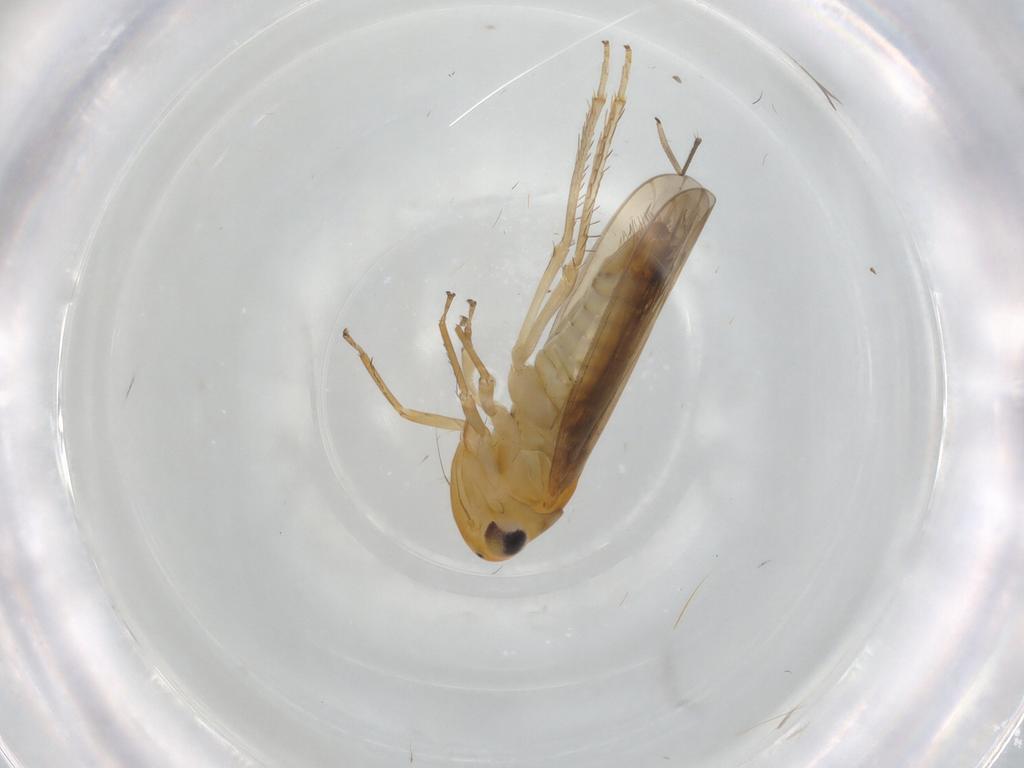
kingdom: Animalia
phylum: Arthropoda
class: Insecta
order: Hemiptera
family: Cicadellidae
